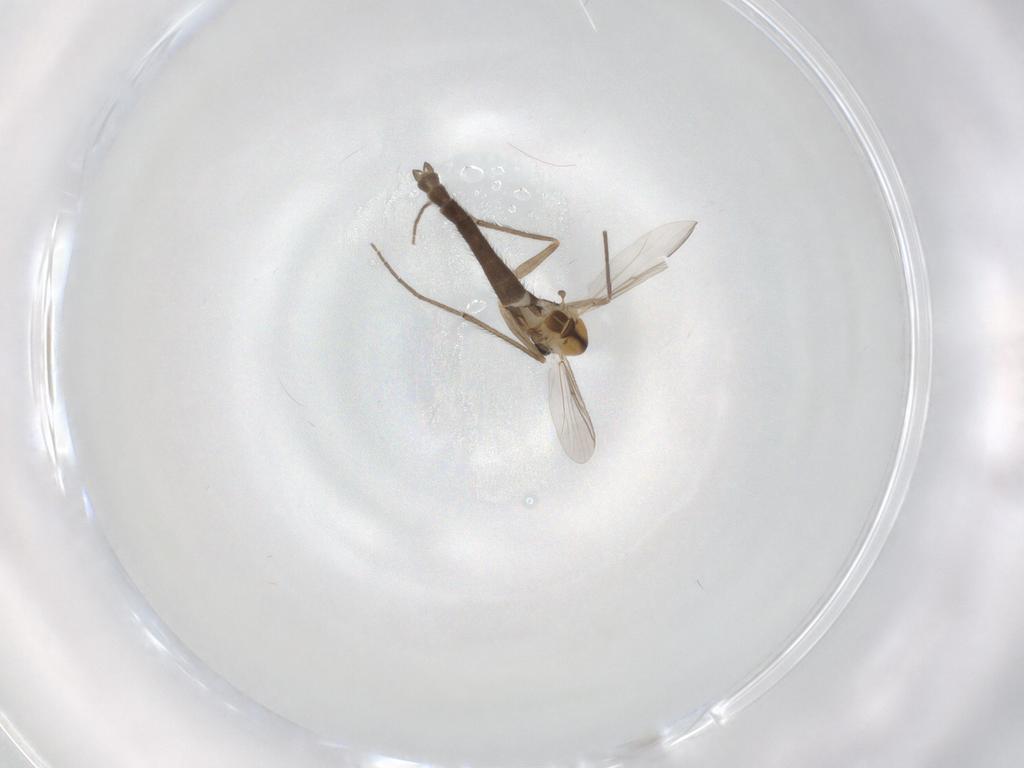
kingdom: Animalia
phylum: Arthropoda
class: Insecta
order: Diptera
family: Chironomidae
